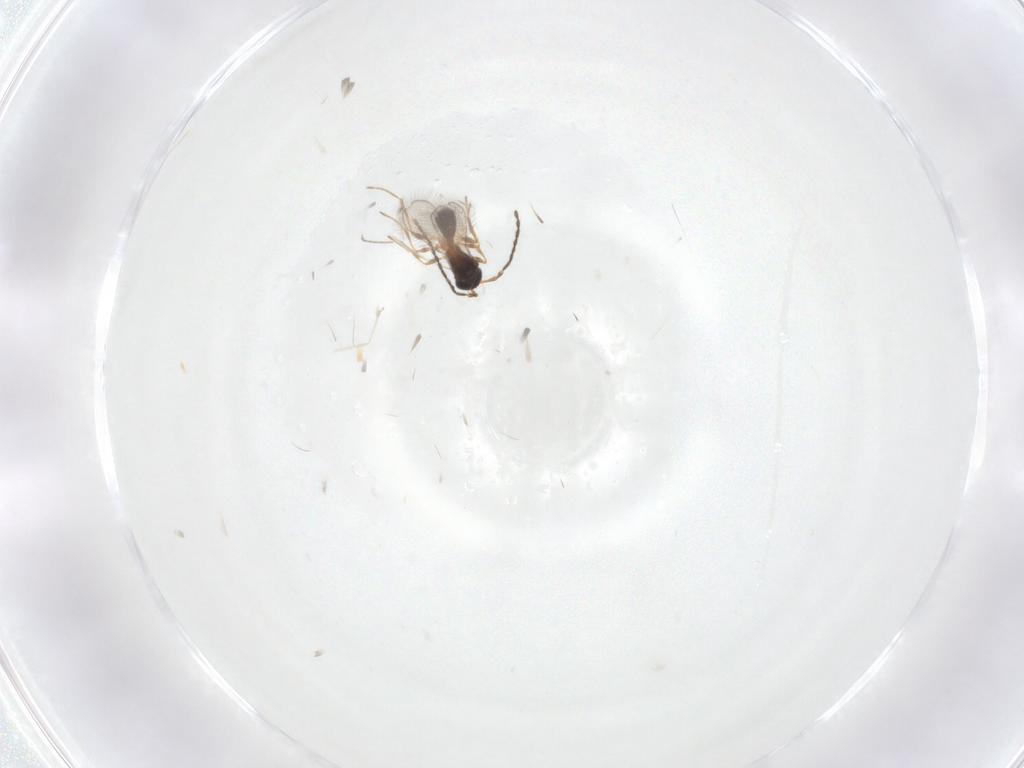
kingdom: Animalia
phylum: Arthropoda
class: Insecta
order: Hymenoptera
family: Diapriidae
